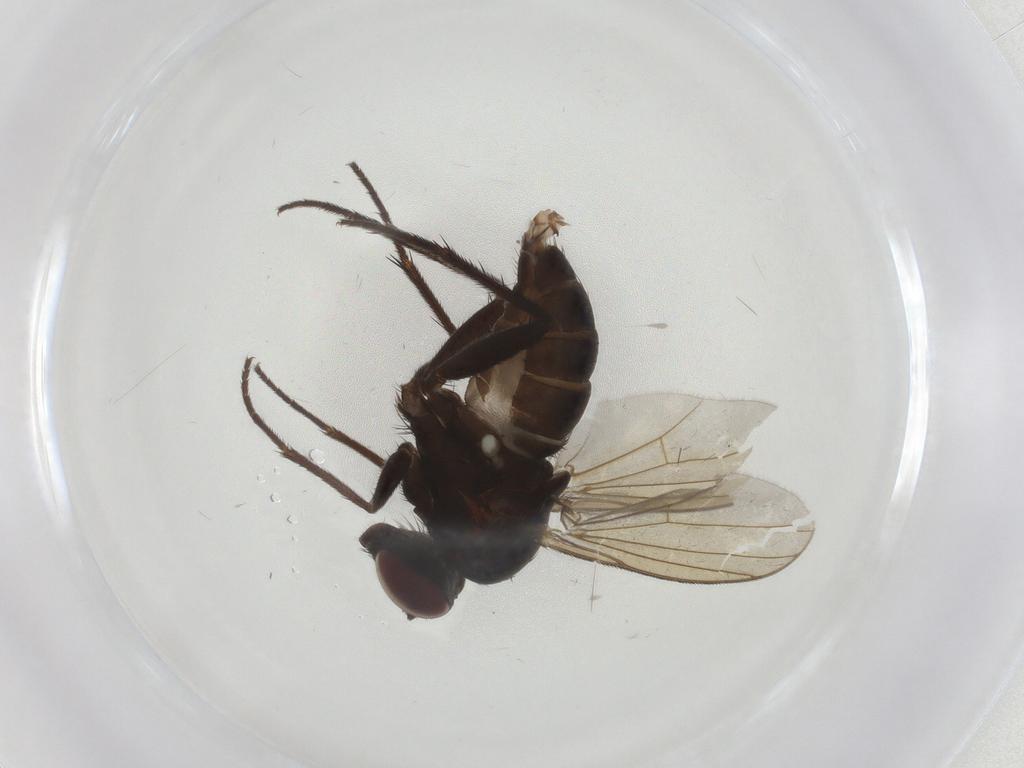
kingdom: Animalia
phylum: Arthropoda
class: Insecta
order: Diptera
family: Dolichopodidae
